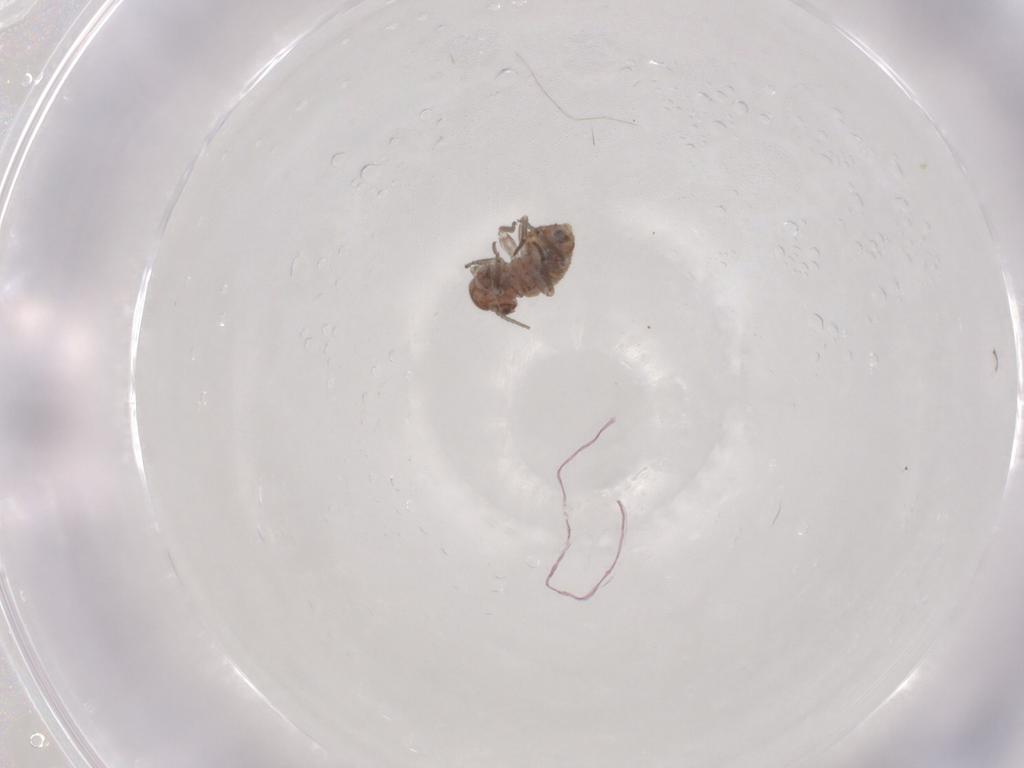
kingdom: Animalia
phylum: Arthropoda
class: Insecta
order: Psocodea
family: Psocidae
